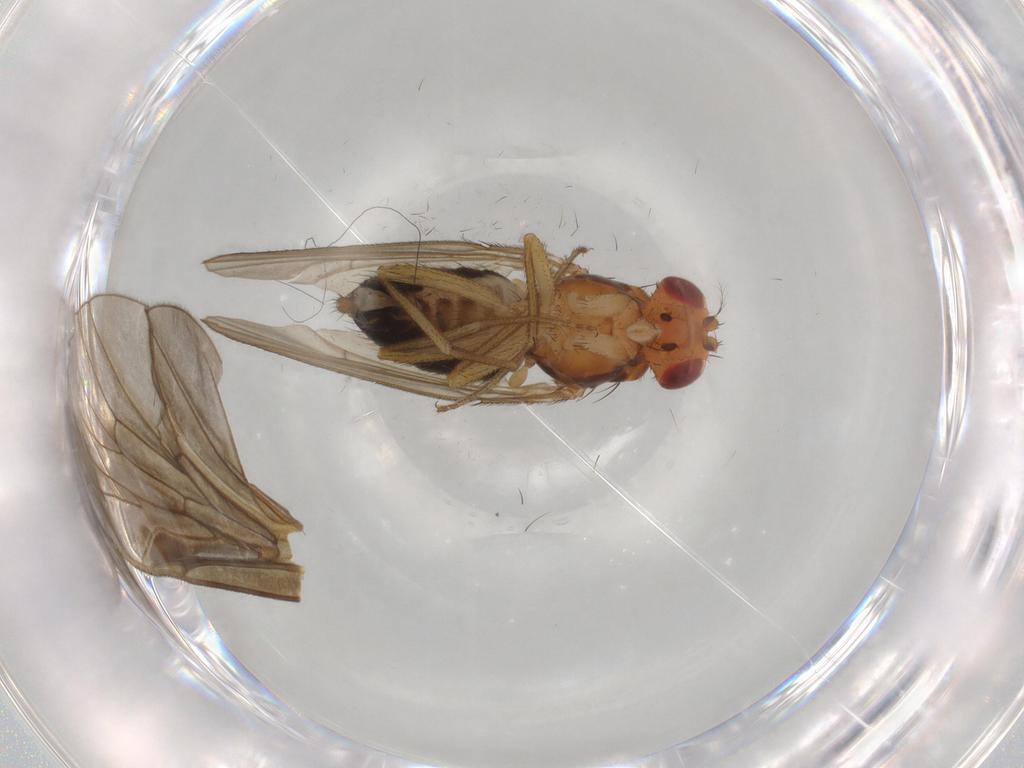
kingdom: Animalia
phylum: Arthropoda
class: Insecta
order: Diptera
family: Drosophilidae
